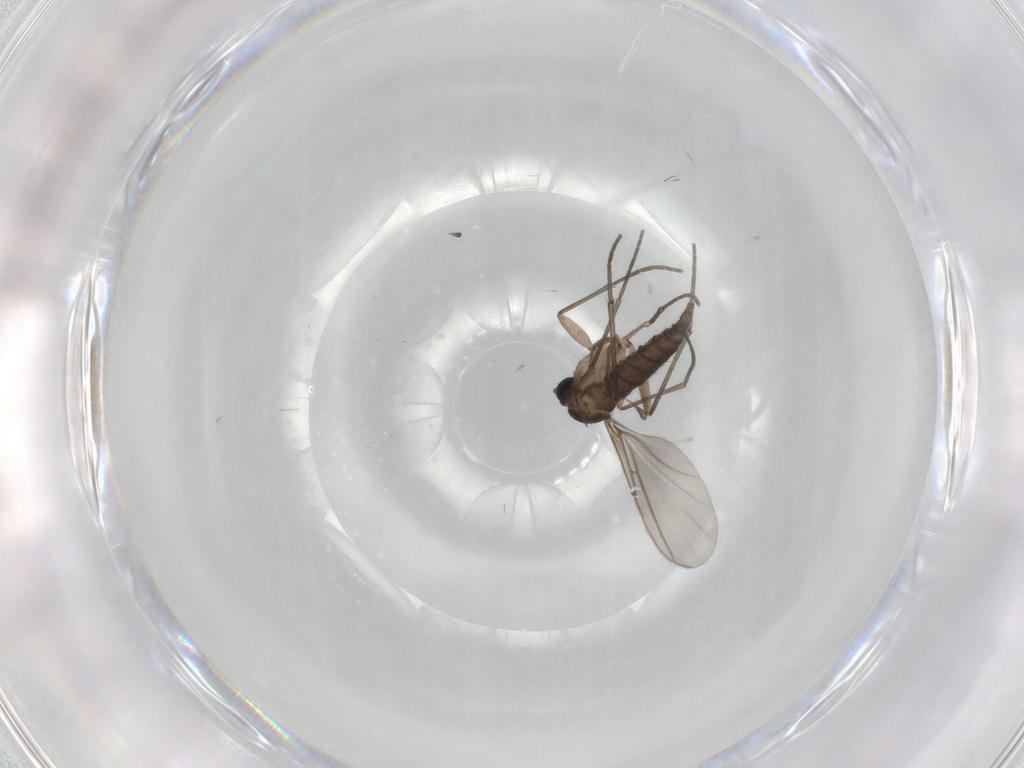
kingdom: Animalia
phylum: Arthropoda
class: Insecta
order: Diptera
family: Sciaridae
